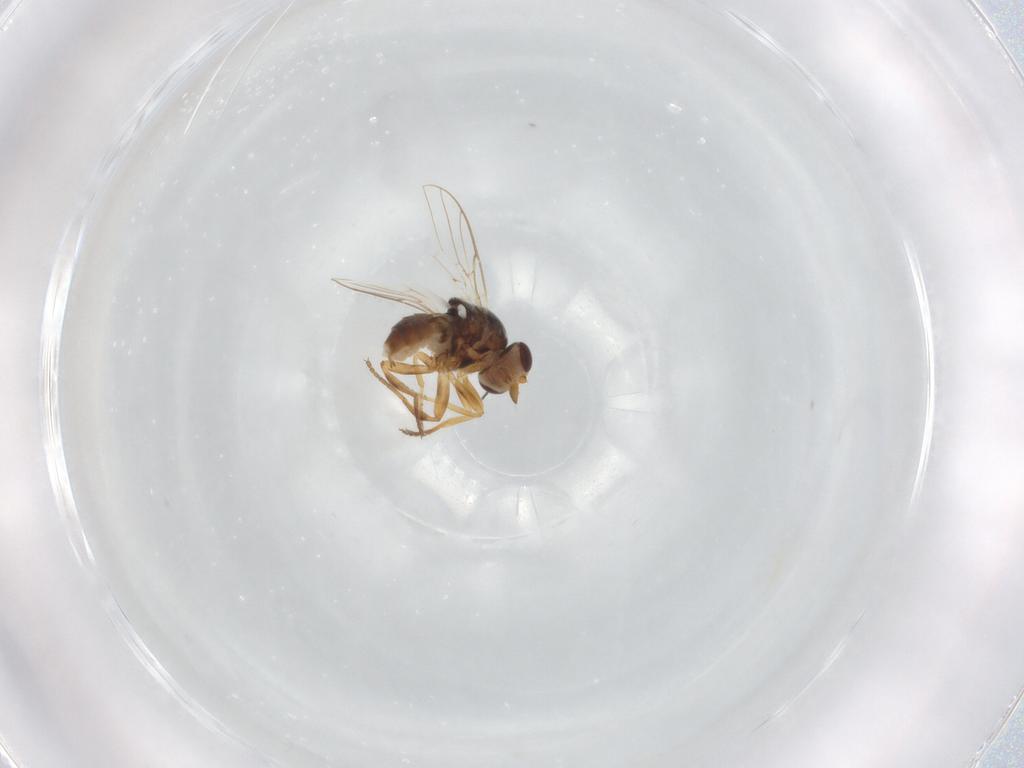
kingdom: Animalia
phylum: Arthropoda
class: Insecta
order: Diptera
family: Chloropidae
